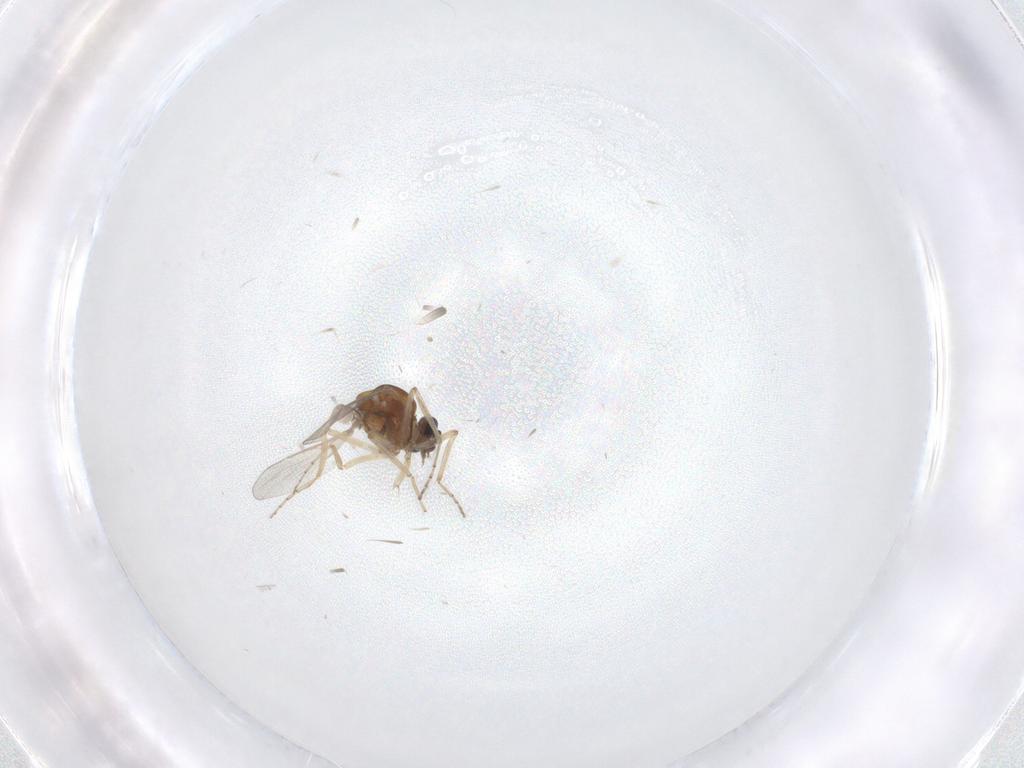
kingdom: Animalia
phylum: Arthropoda
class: Insecta
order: Diptera
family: Ceratopogonidae
